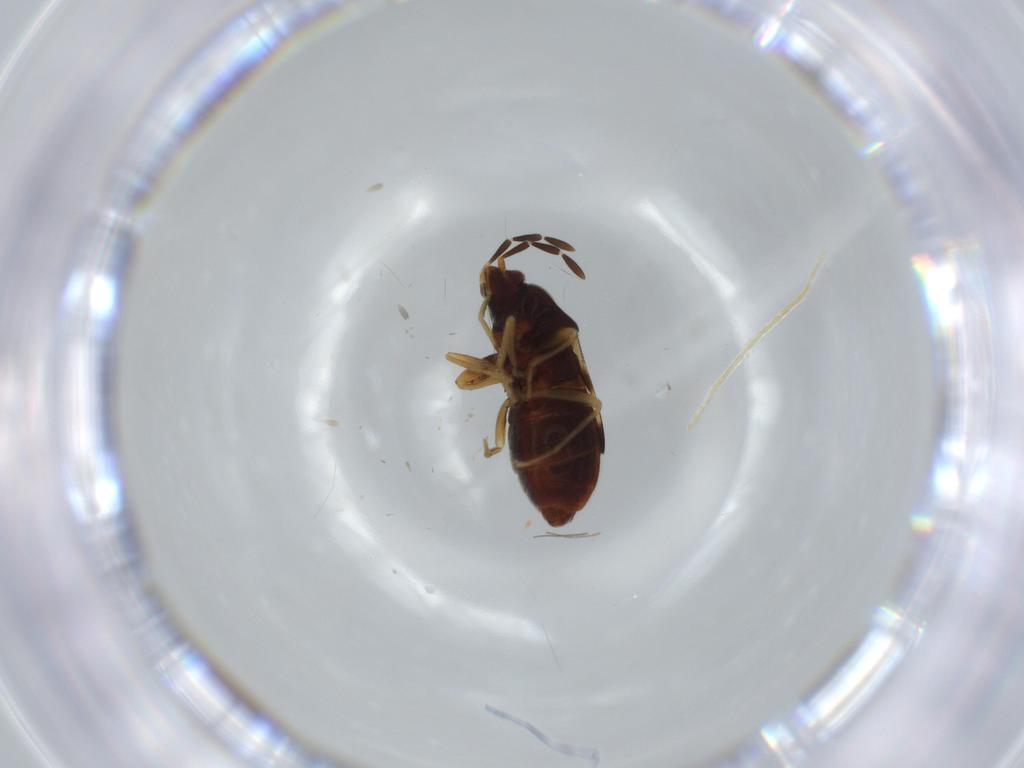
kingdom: Animalia
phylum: Arthropoda
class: Insecta
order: Hemiptera
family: Rhyparochromidae
